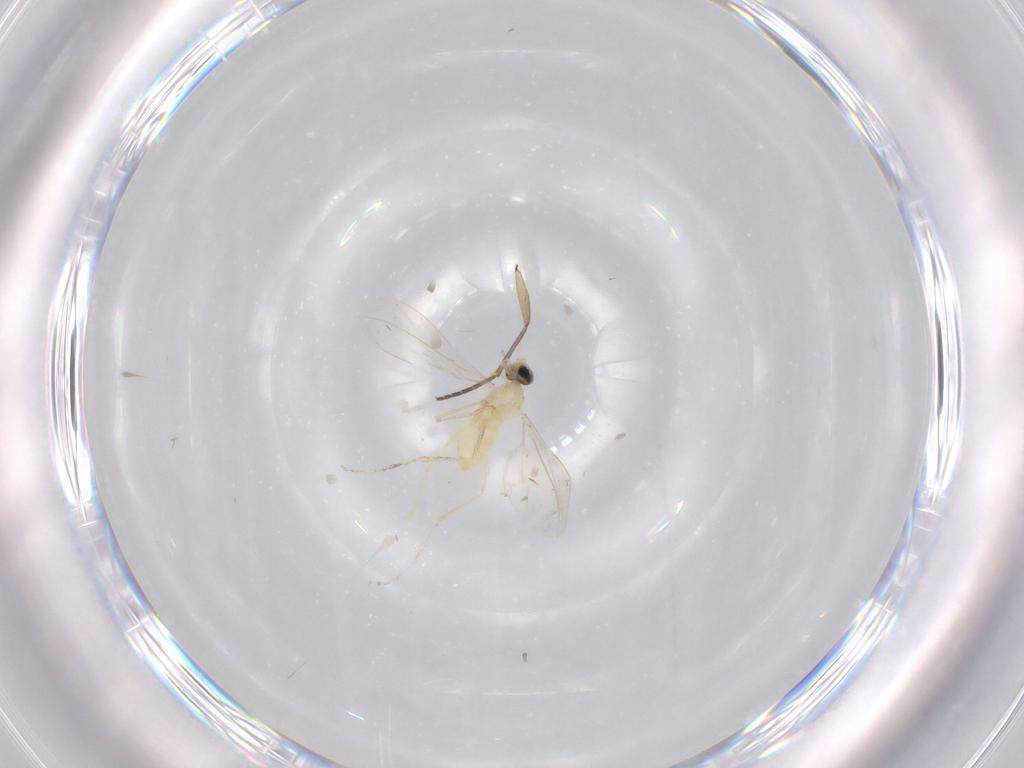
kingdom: Animalia
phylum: Arthropoda
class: Insecta
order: Diptera
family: Cecidomyiidae
